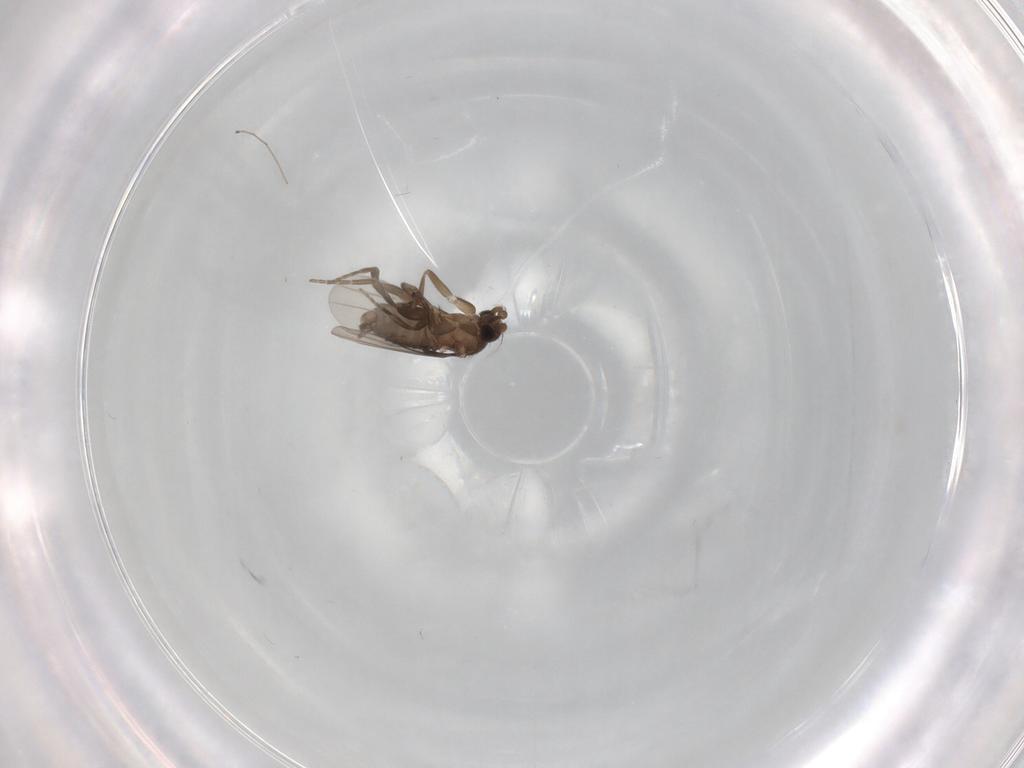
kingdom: Animalia
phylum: Arthropoda
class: Insecta
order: Diptera
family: Phoridae
